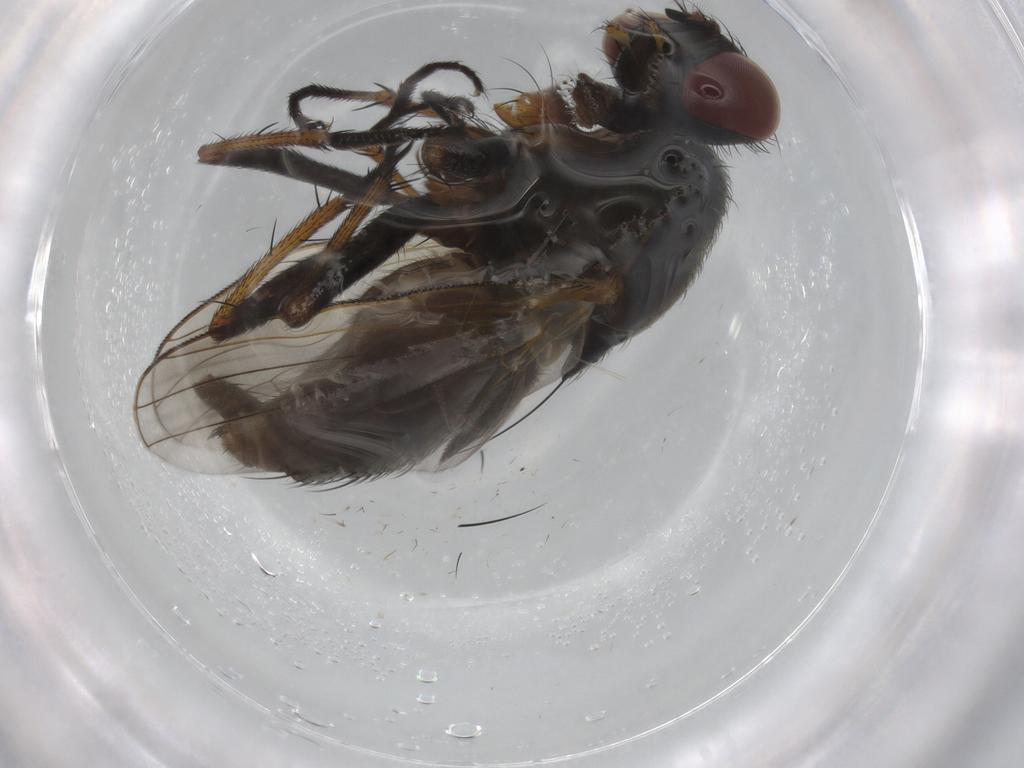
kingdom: Animalia
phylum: Arthropoda
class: Insecta
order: Diptera
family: Muscidae
